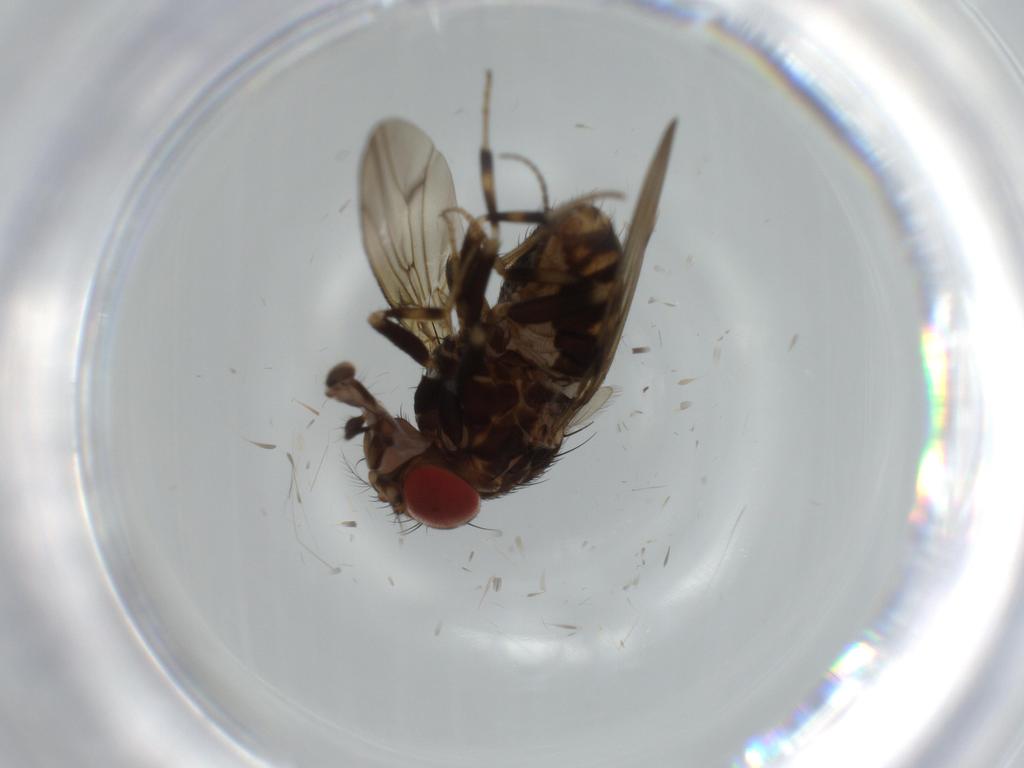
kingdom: Animalia
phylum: Arthropoda
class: Insecta
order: Diptera
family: Drosophilidae
